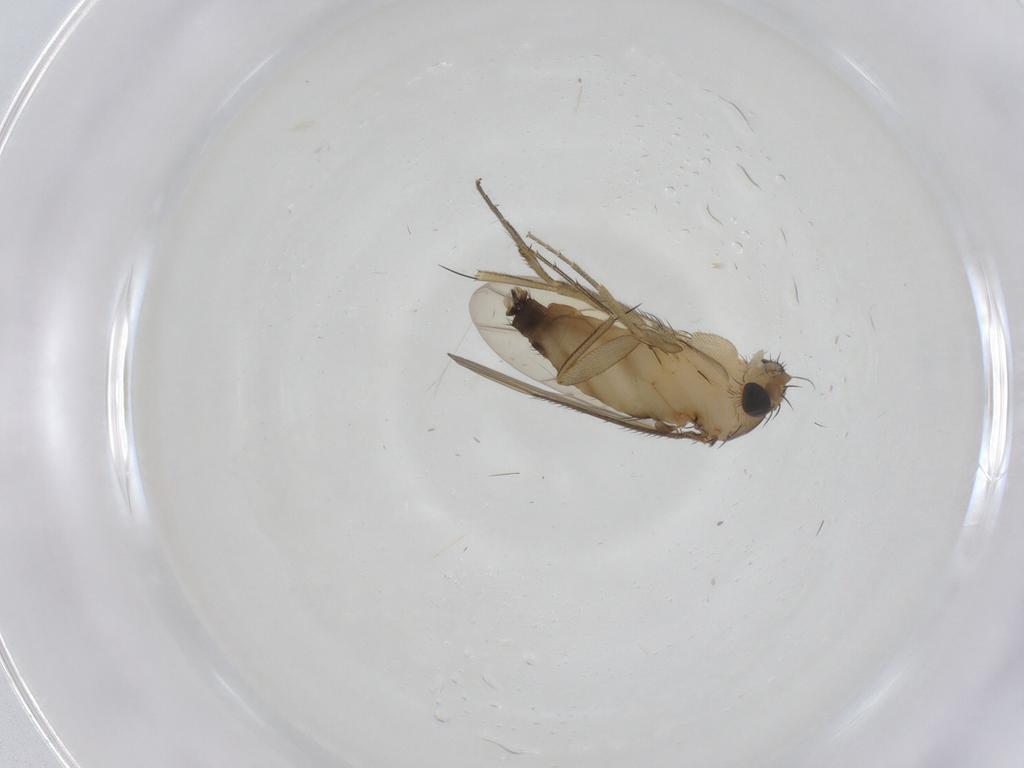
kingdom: Animalia
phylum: Arthropoda
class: Insecta
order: Diptera
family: Phoridae
